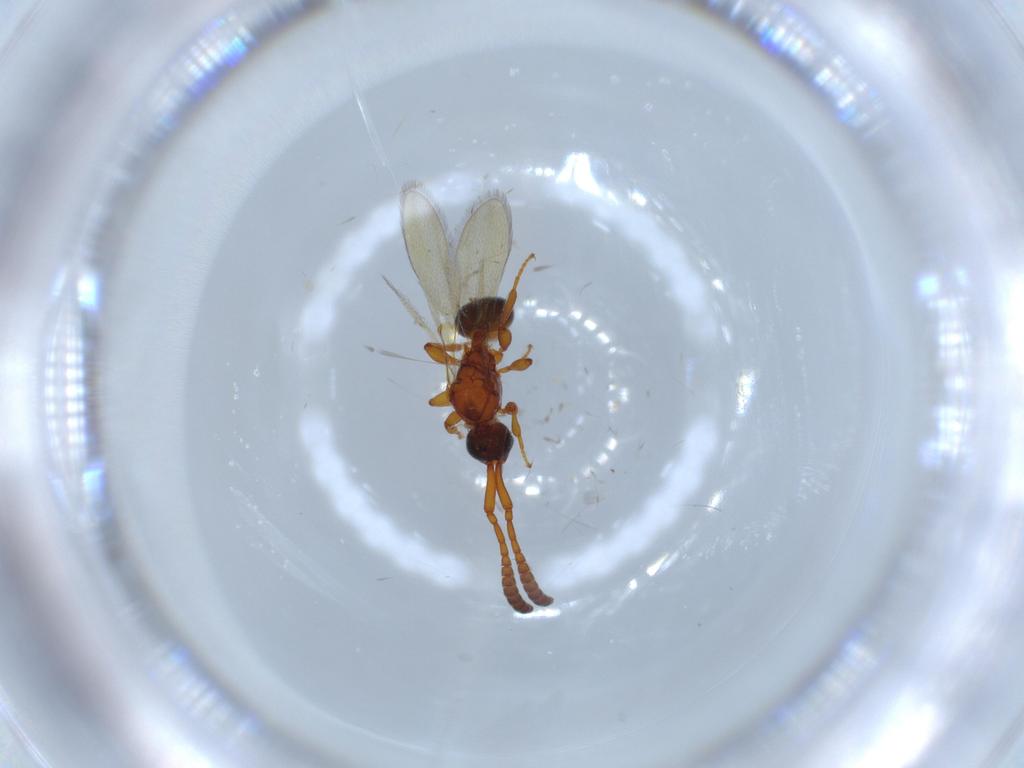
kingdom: Animalia
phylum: Arthropoda
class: Insecta
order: Hymenoptera
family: Diapriidae
